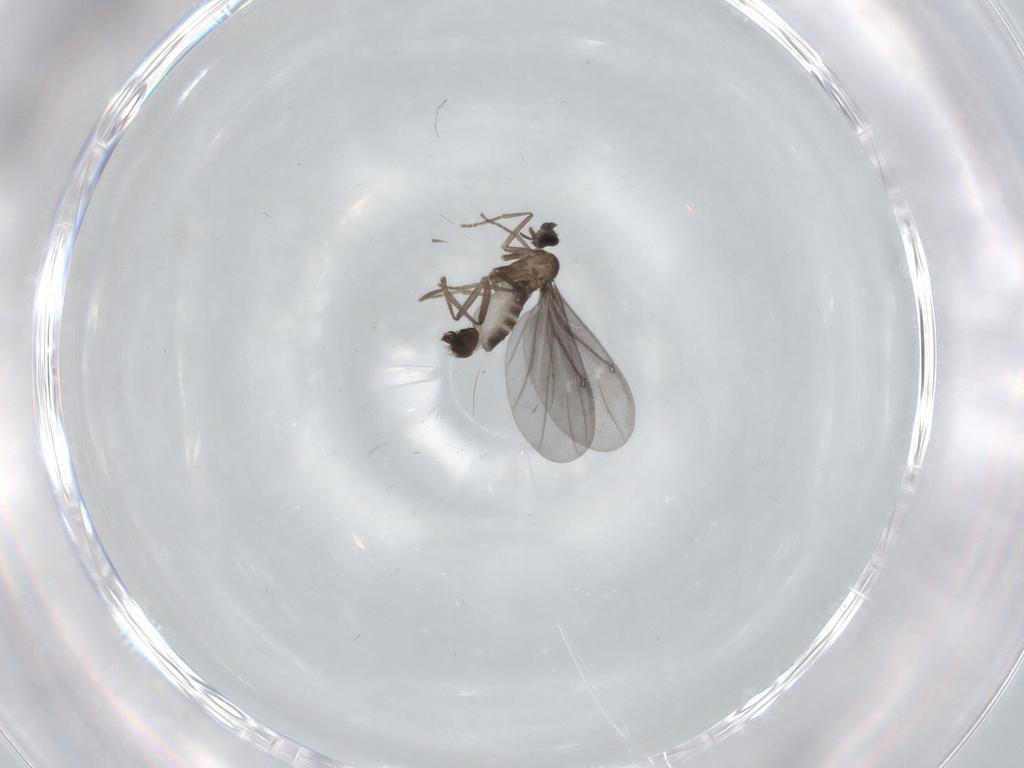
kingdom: Animalia
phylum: Arthropoda
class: Insecta
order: Diptera
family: Phoridae
